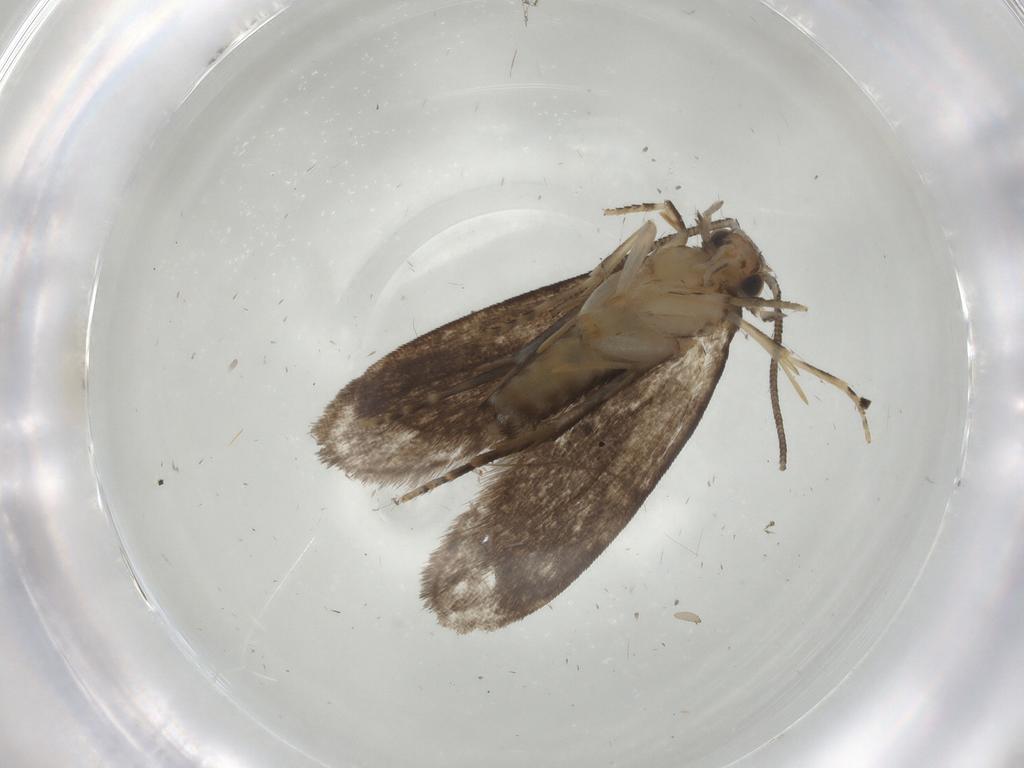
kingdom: Animalia
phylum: Arthropoda
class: Insecta
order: Lepidoptera
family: Dryadaulidae
